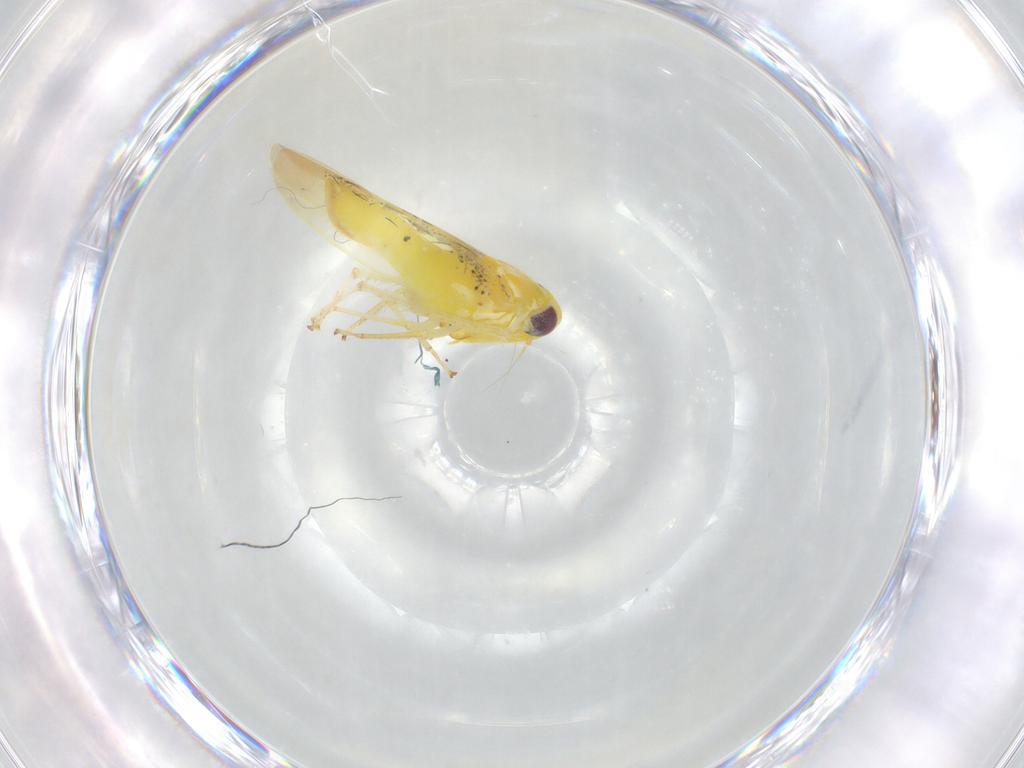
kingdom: Animalia
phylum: Arthropoda
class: Insecta
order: Hemiptera
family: Cicadellidae
